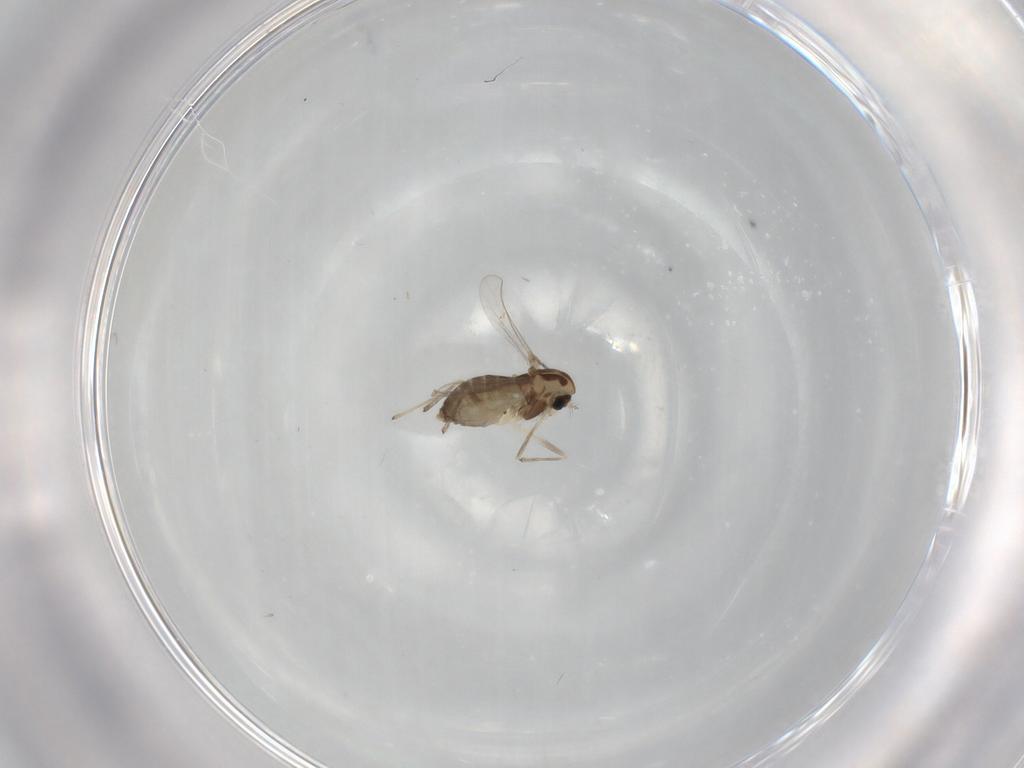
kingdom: Animalia
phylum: Arthropoda
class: Insecta
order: Diptera
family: Chironomidae
